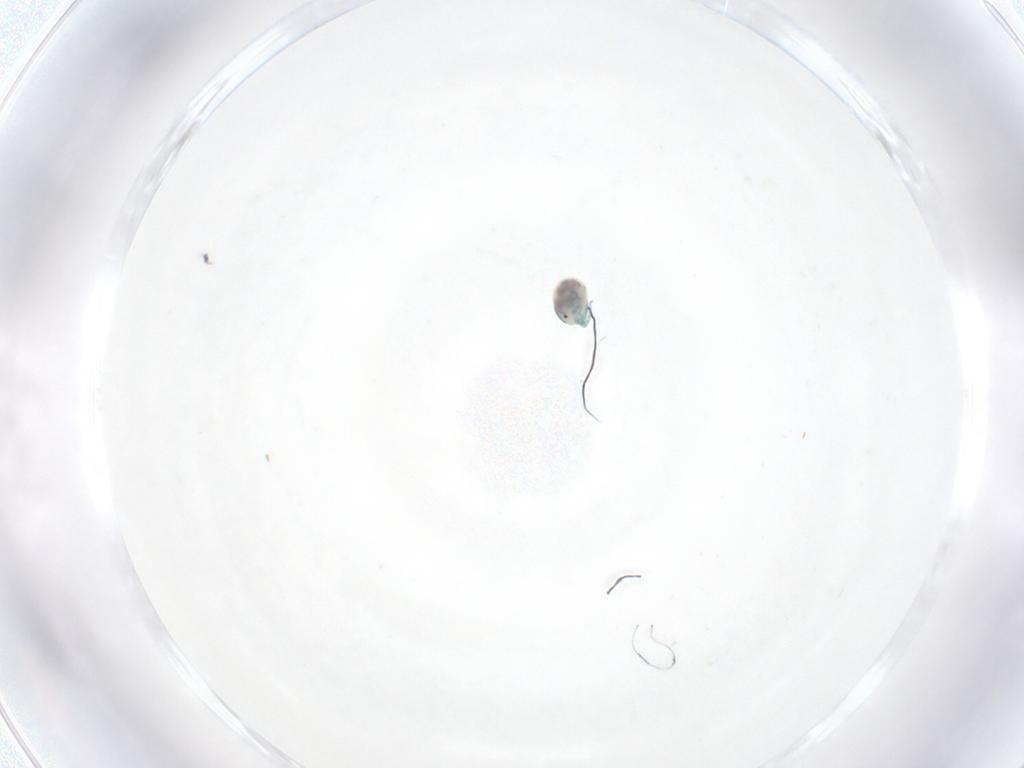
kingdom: Animalia
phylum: Arthropoda
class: Arachnida
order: Trombidiformes
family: Arrenuridae
